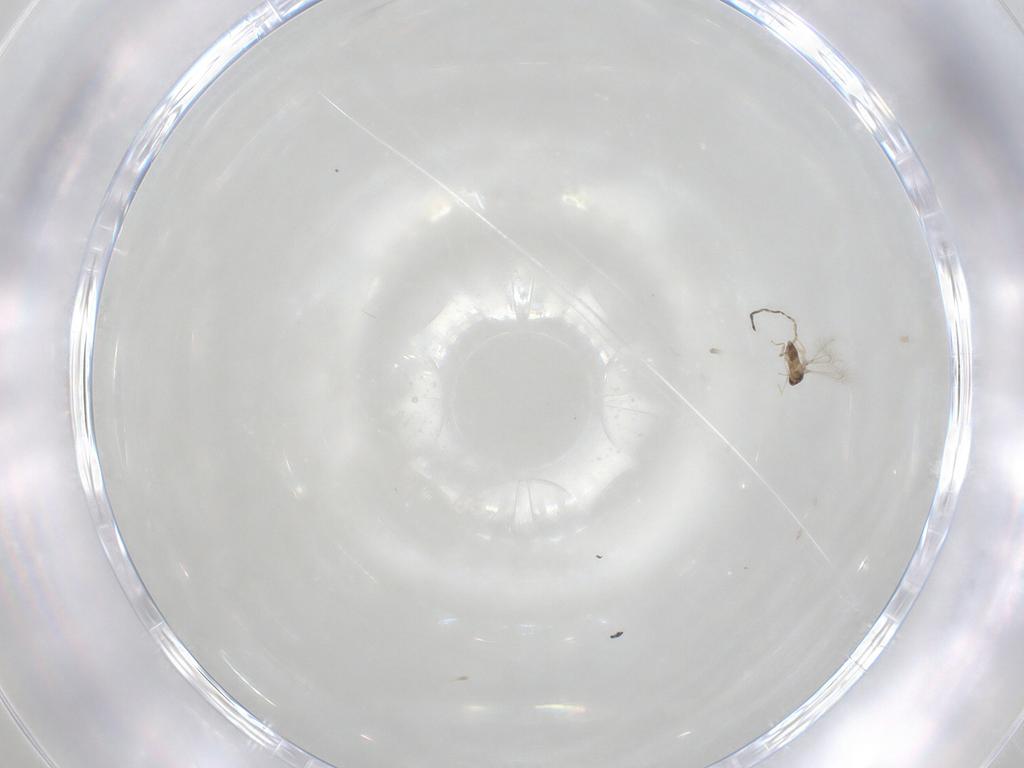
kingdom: Animalia
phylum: Arthropoda
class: Insecta
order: Hymenoptera
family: Mymaridae
